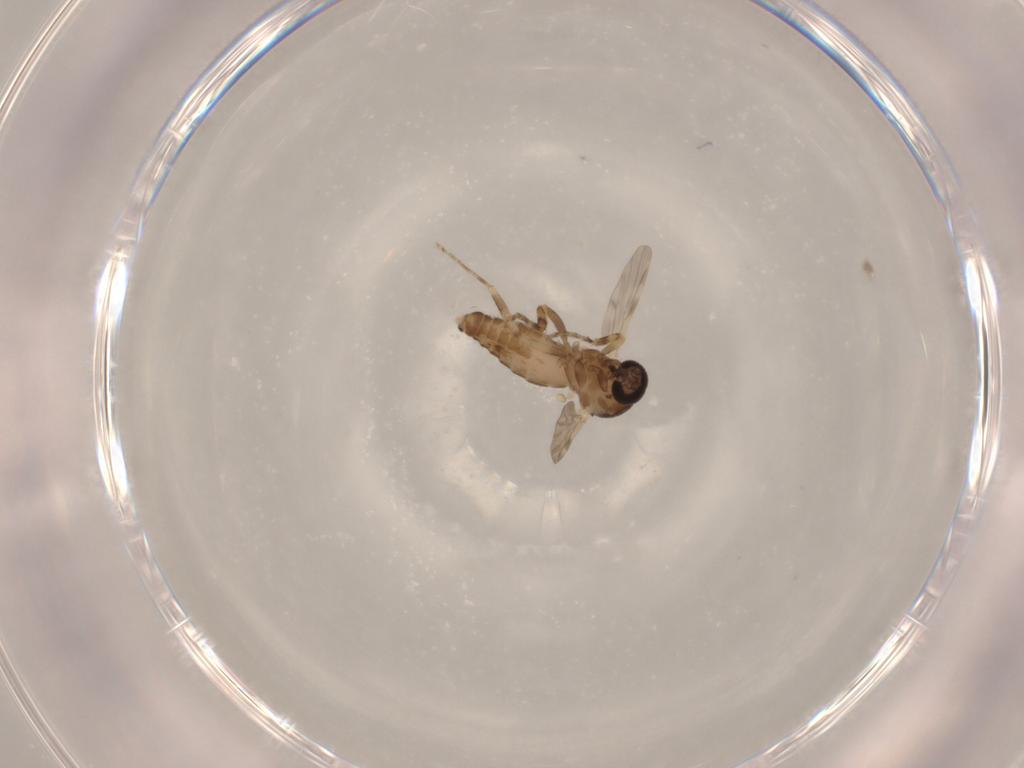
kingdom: Animalia
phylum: Arthropoda
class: Insecta
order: Diptera
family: Ceratopogonidae
